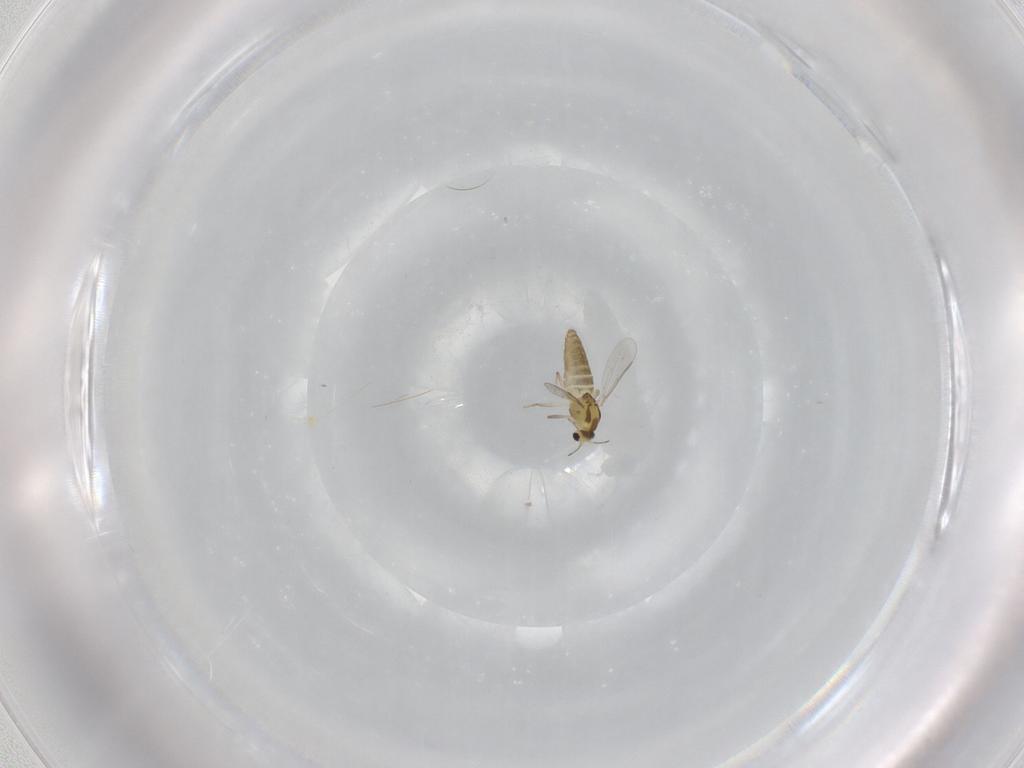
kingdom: Animalia
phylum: Arthropoda
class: Insecta
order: Diptera
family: Chironomidae
